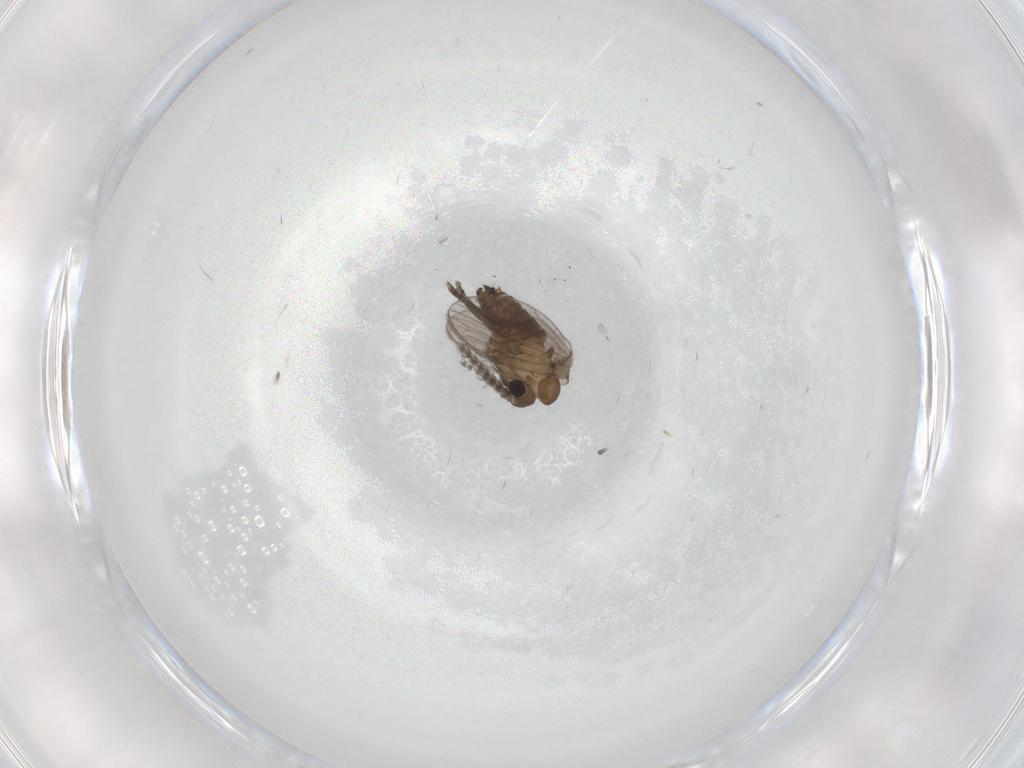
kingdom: Animalia
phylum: Arthropoda
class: Insecta
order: Diptera
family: Psychodidae
